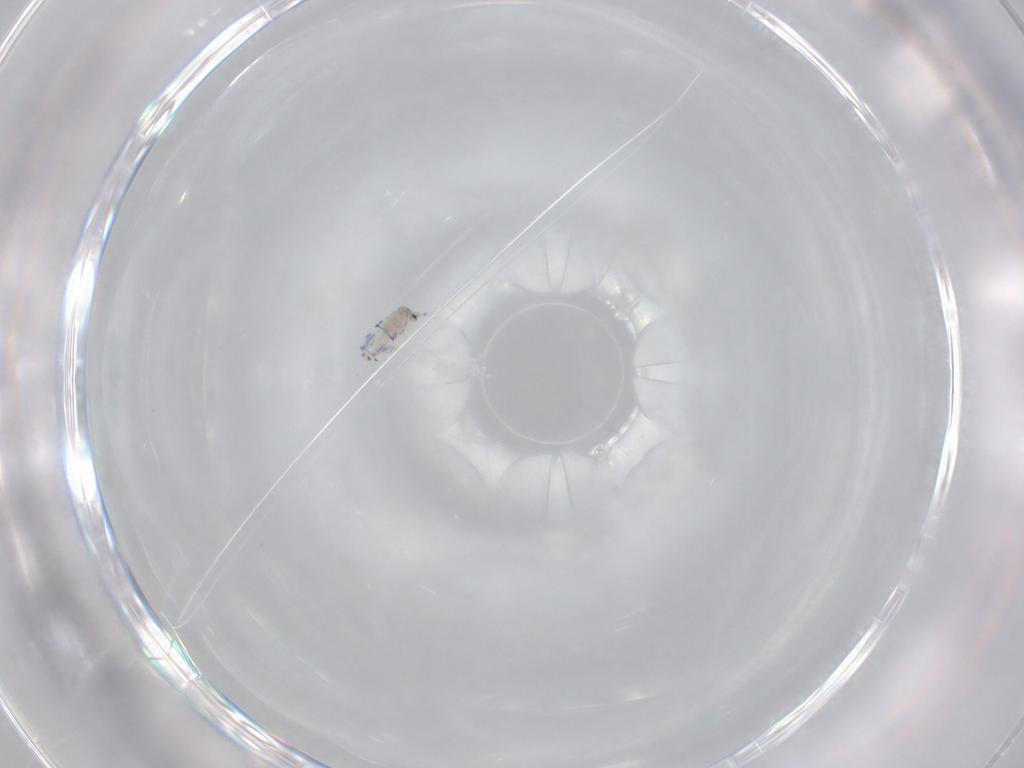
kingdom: Animalia
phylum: Arthropoda
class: Collembola
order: Entomobryomorpha
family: Entomobryidae
